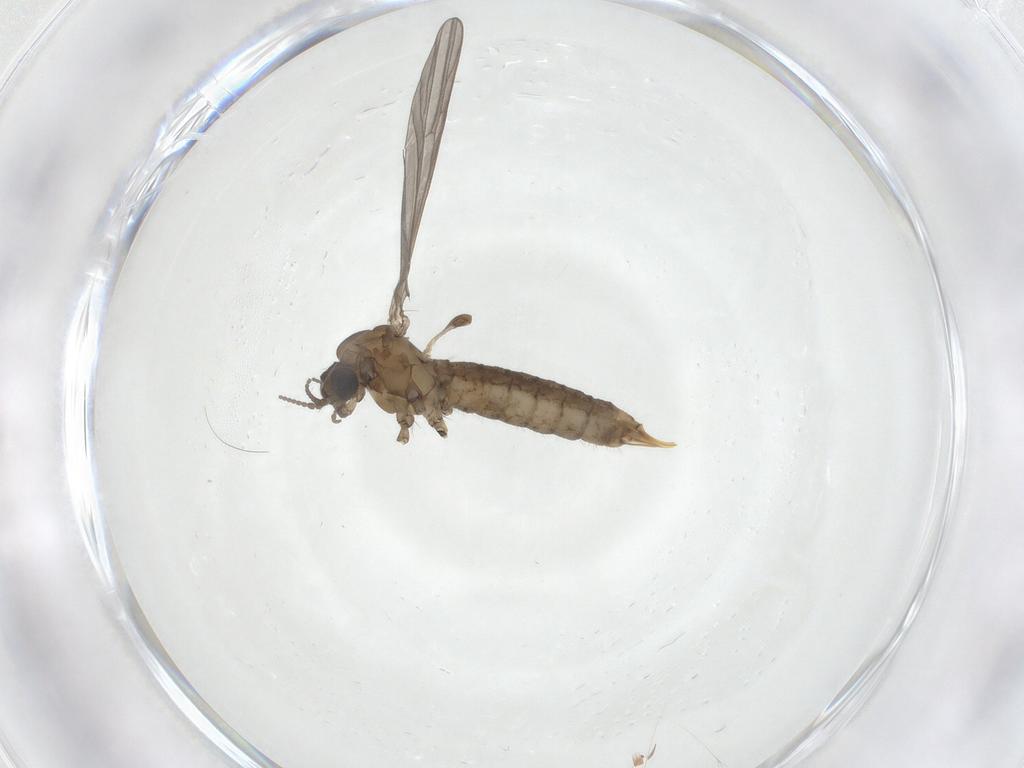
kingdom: Animalia
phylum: Arthropoda
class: Insecta
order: Diptera
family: Limoniidae
